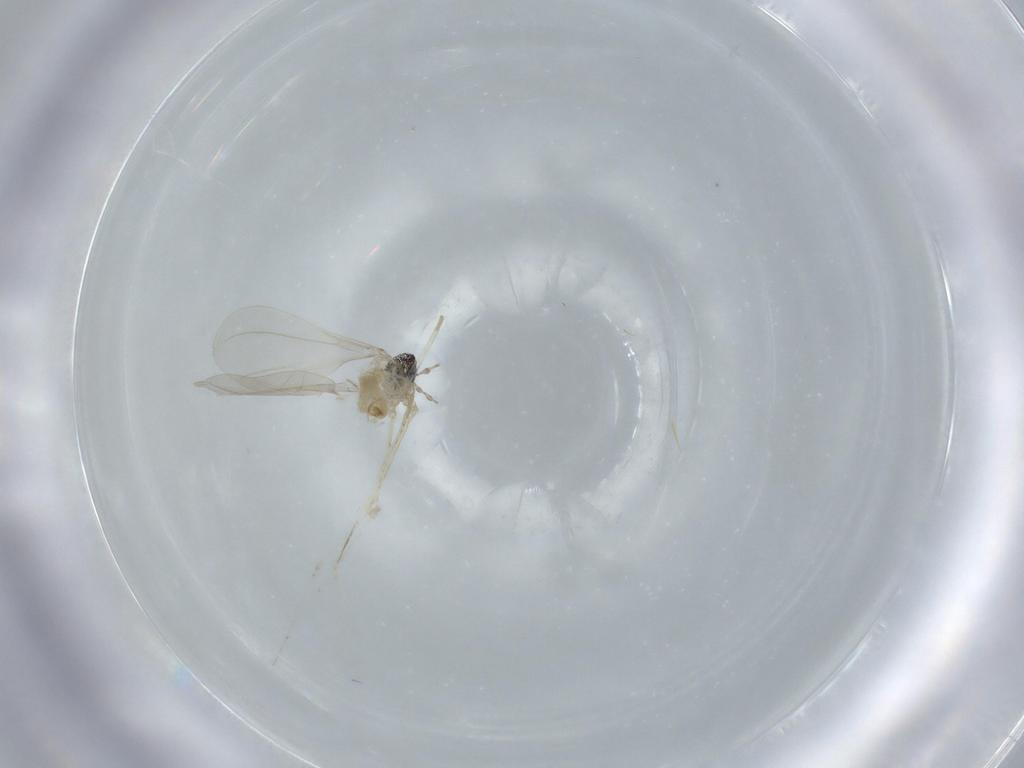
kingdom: Animalia
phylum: Arthropoda
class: Insecta
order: Diptera
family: Cecidomyiidae
